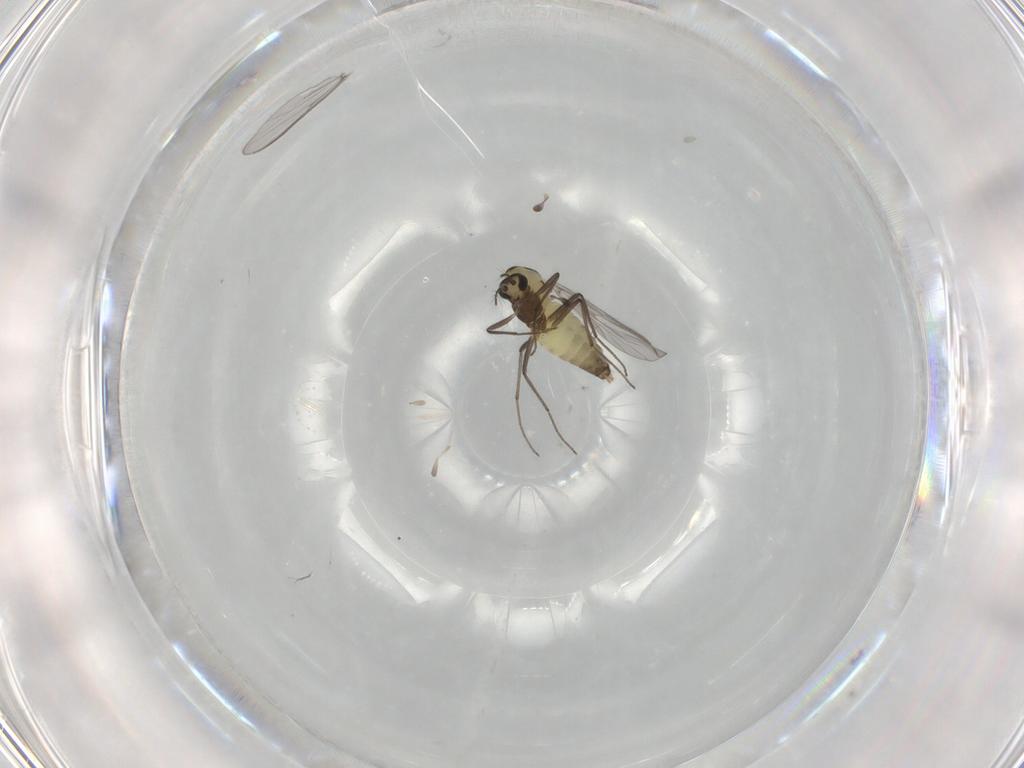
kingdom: Animalia
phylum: Arthropoda
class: Insecta
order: Diptera
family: Chironomidae
